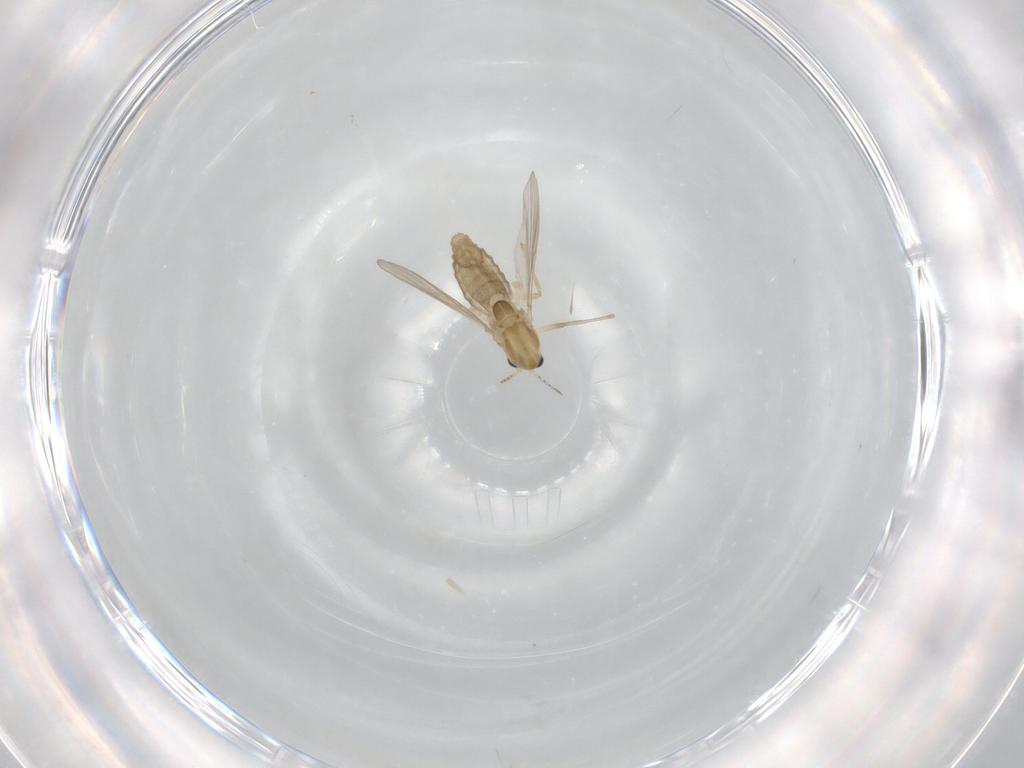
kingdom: Animalia
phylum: Arthropoda
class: Insecta
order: Diptera
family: Chironomidae
